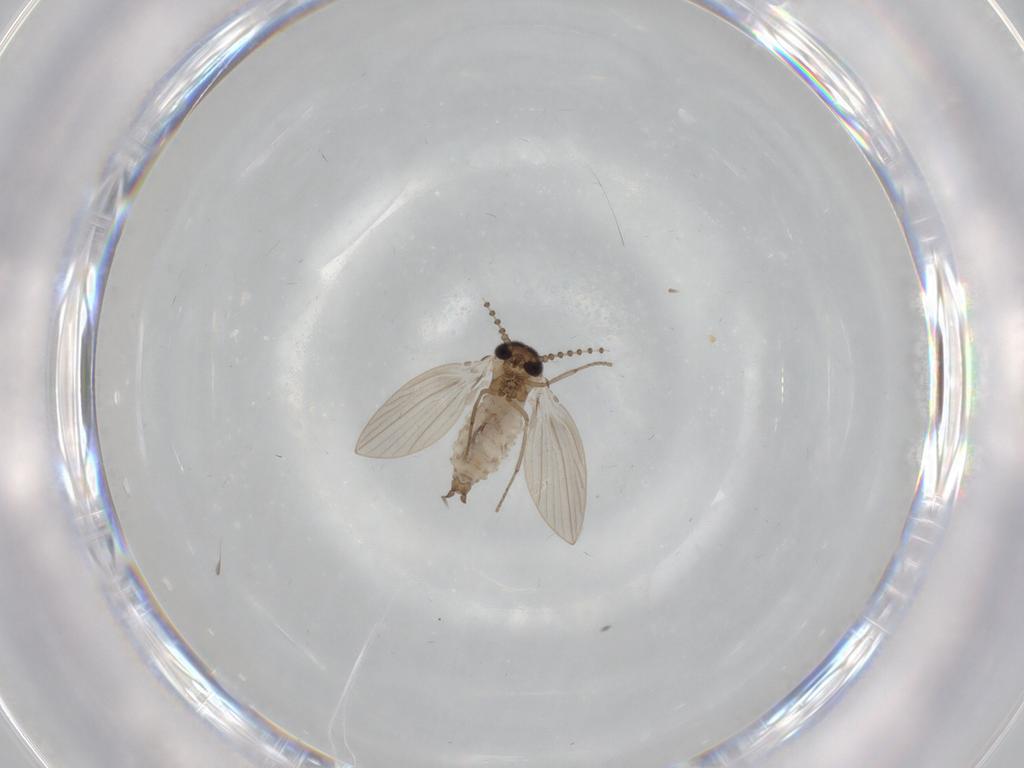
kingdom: Animalia
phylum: Arthropoda
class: Insecta
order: Diptera
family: Psychodidae
